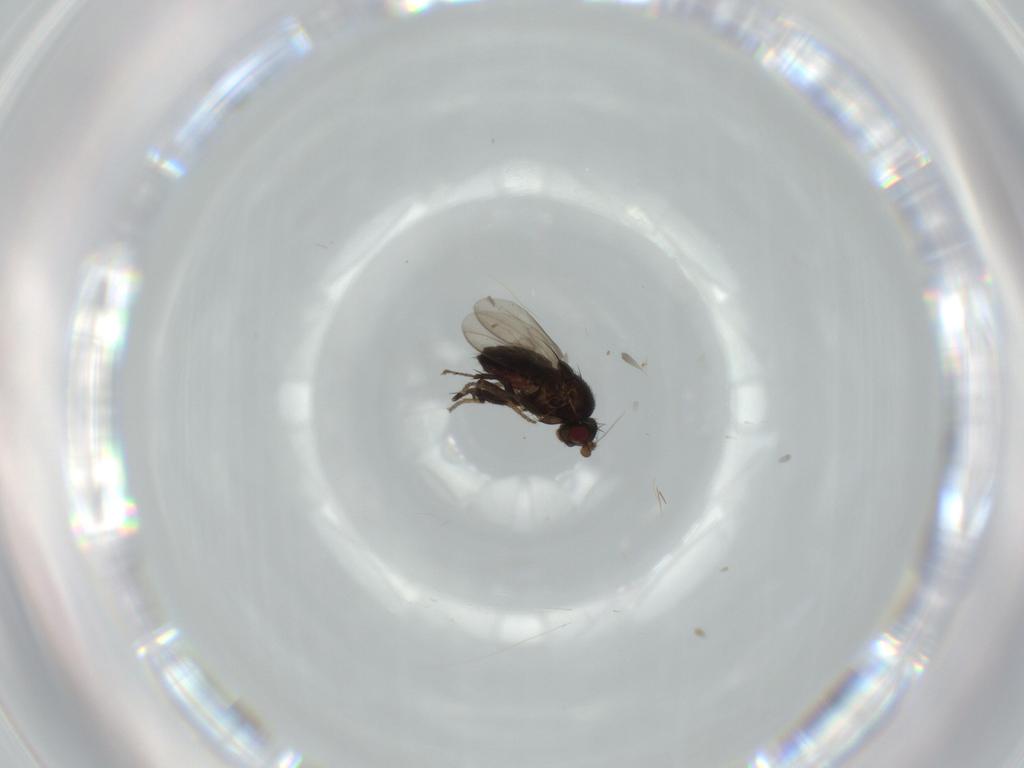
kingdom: Animalia
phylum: Arthropoda
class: Insecta
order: Diptera
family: Sphaeroceridae
